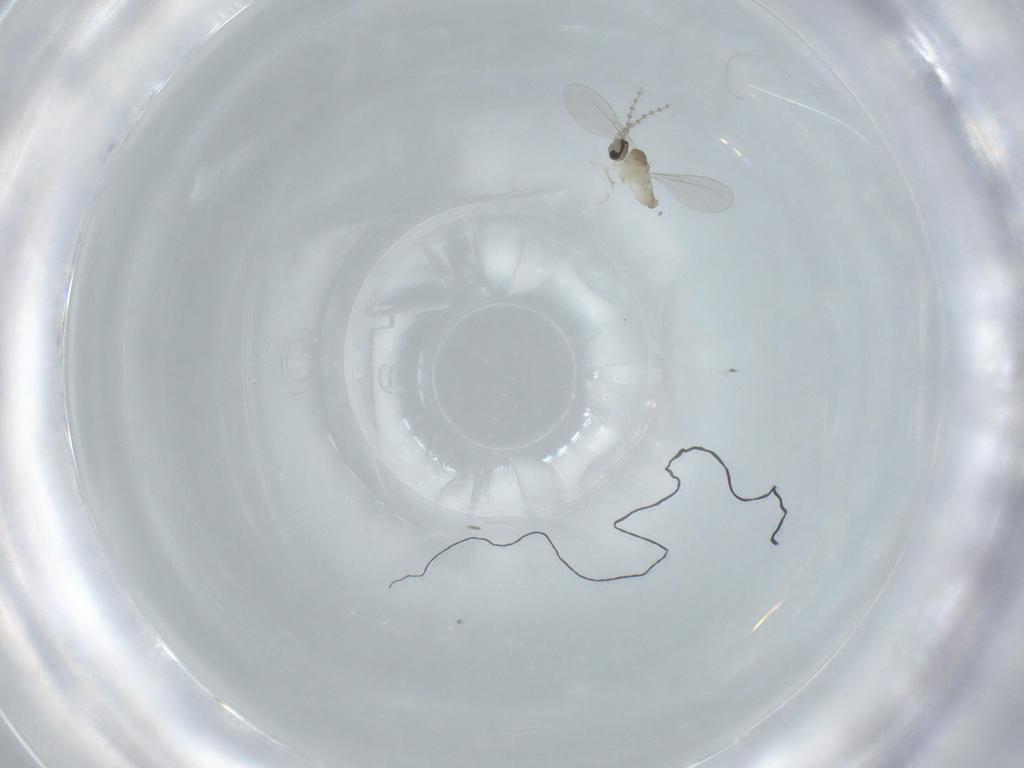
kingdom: Animalia
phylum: Arthropoda
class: Insecta
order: Diptera
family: Cecidomyiidae
